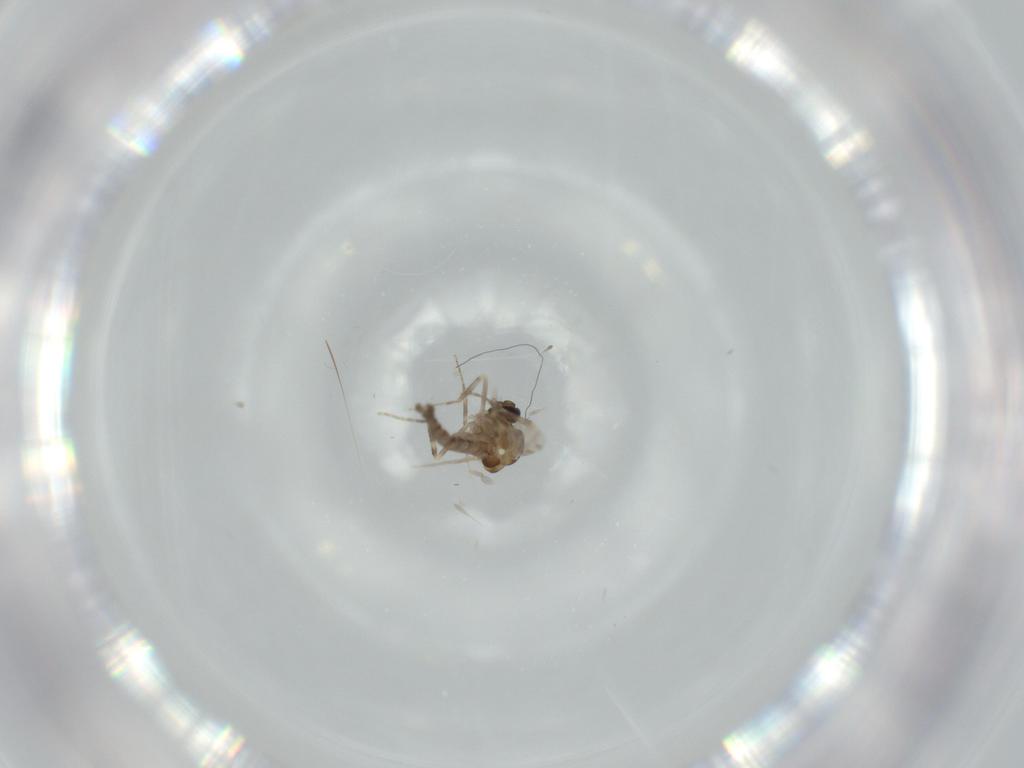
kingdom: Animalia
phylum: Arthropoda
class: Insecta
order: Diptera
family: Ceratopogonidae
